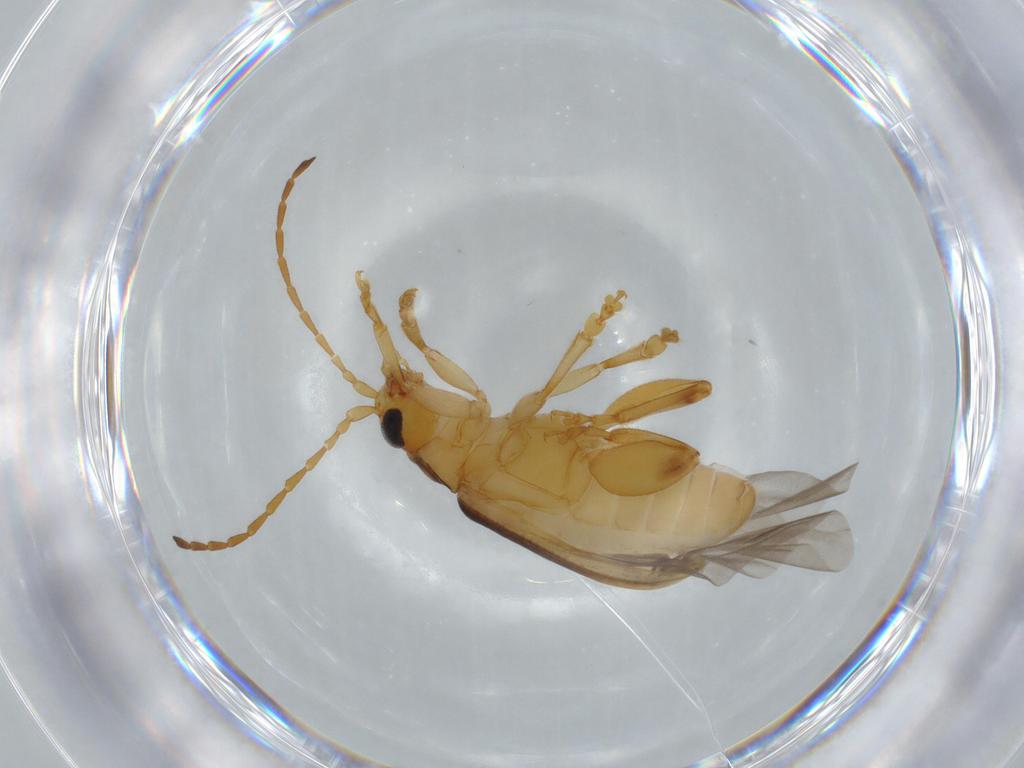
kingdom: Animalia
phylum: Arthropoda
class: Insecta
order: Coleoptera
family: Chrysomelidae
